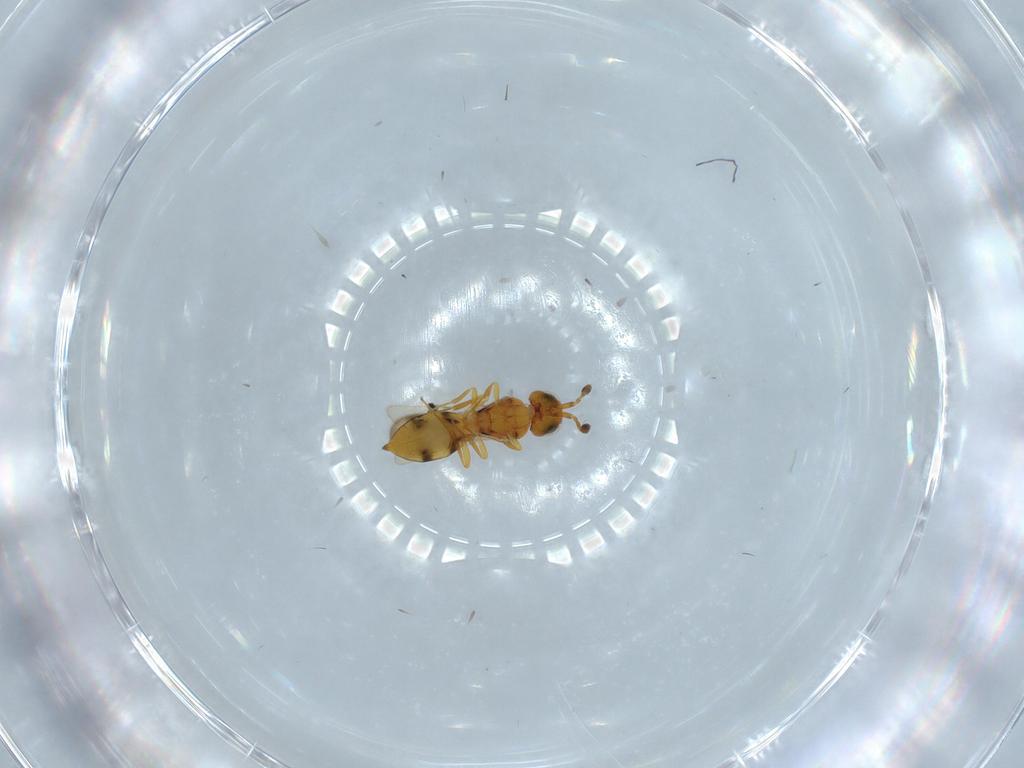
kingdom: Animalia
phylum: Arthropoda
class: Insecta
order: Hymenoptera
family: Scelionidae
